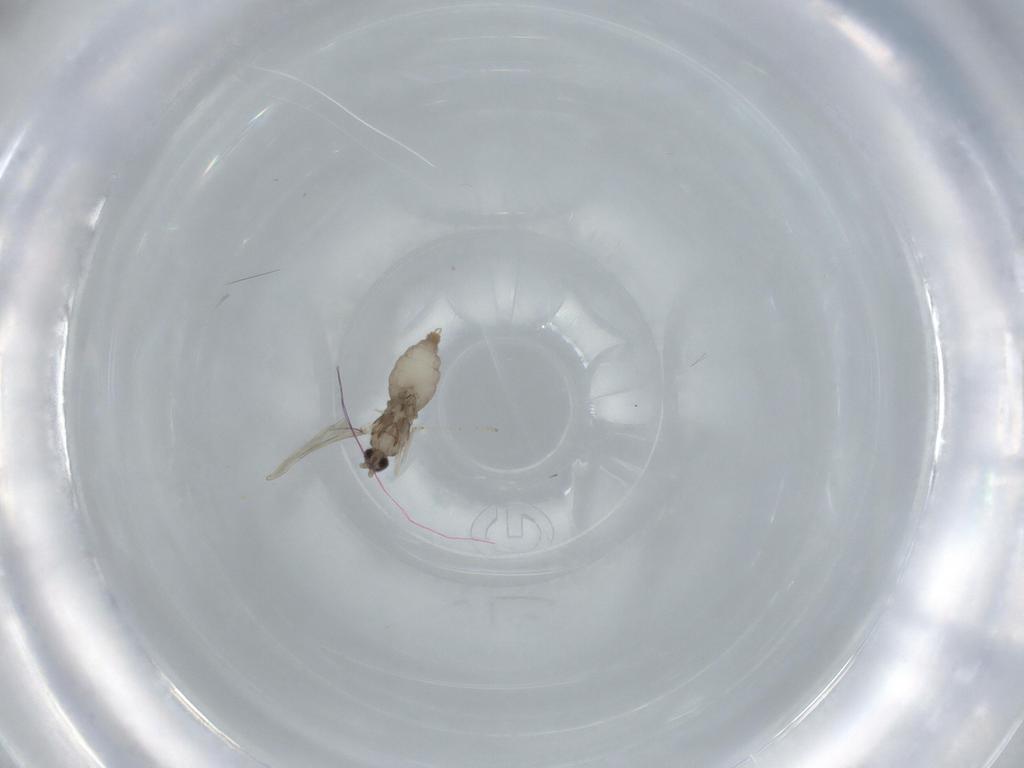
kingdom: Animalia
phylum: Arthropoda
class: Insecta
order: Diptera
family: Cecidomyiidae
